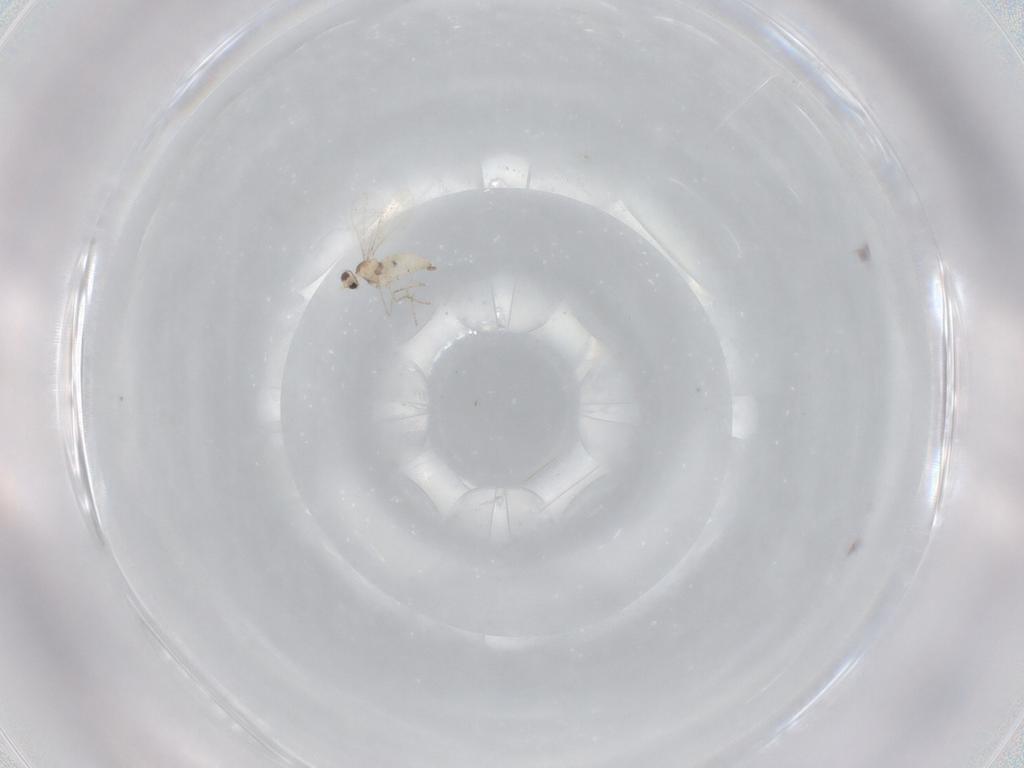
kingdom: Animalia
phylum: Arthropoda
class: Insecta
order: Diptera
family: Cecidomyiidae
